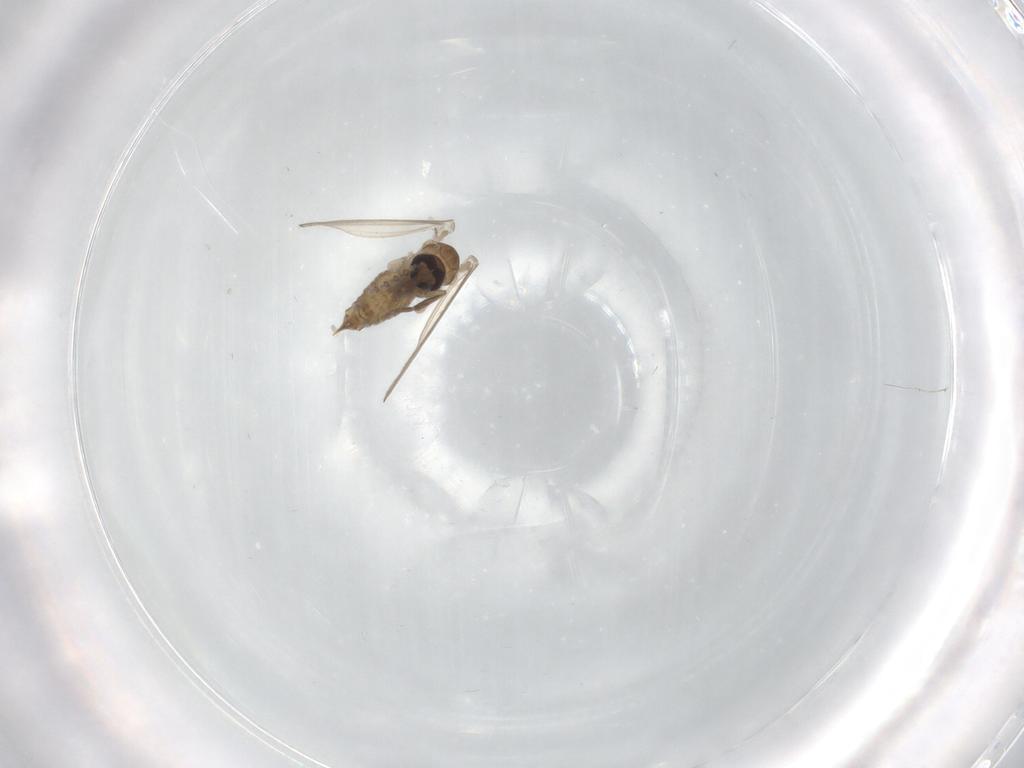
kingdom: Animalia
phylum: Arthropoda
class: Insecta
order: Diptera
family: Psychodidae
